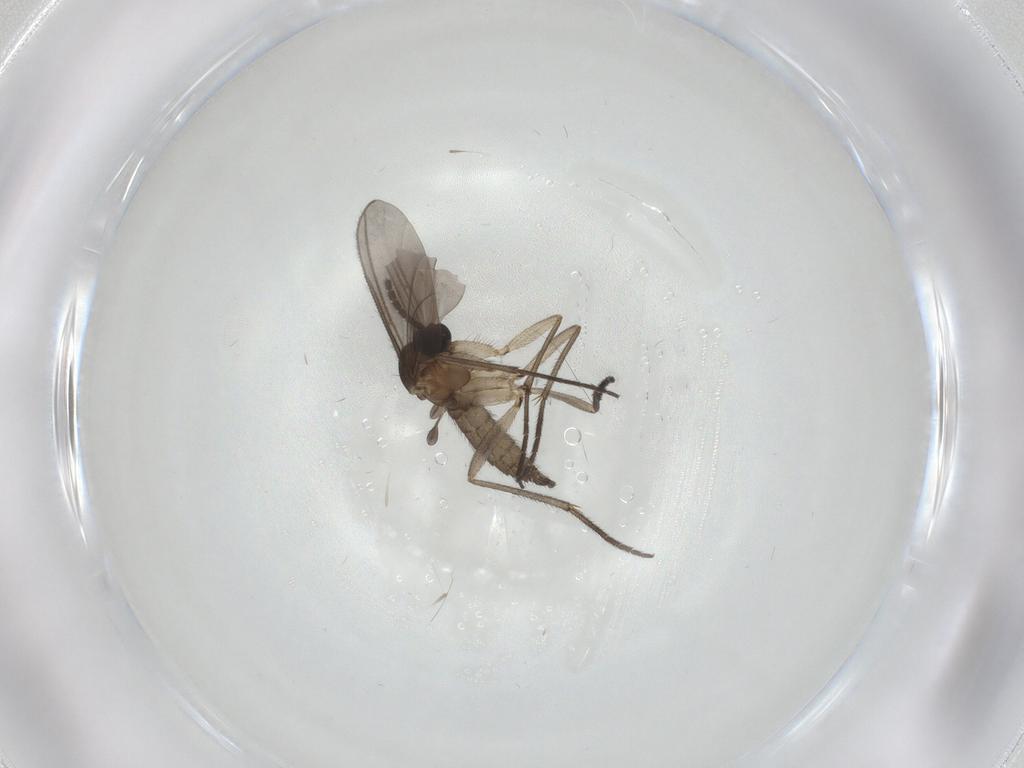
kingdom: Animalia
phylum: Arthropoda
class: Insecta
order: Diptera
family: Sciaridae
